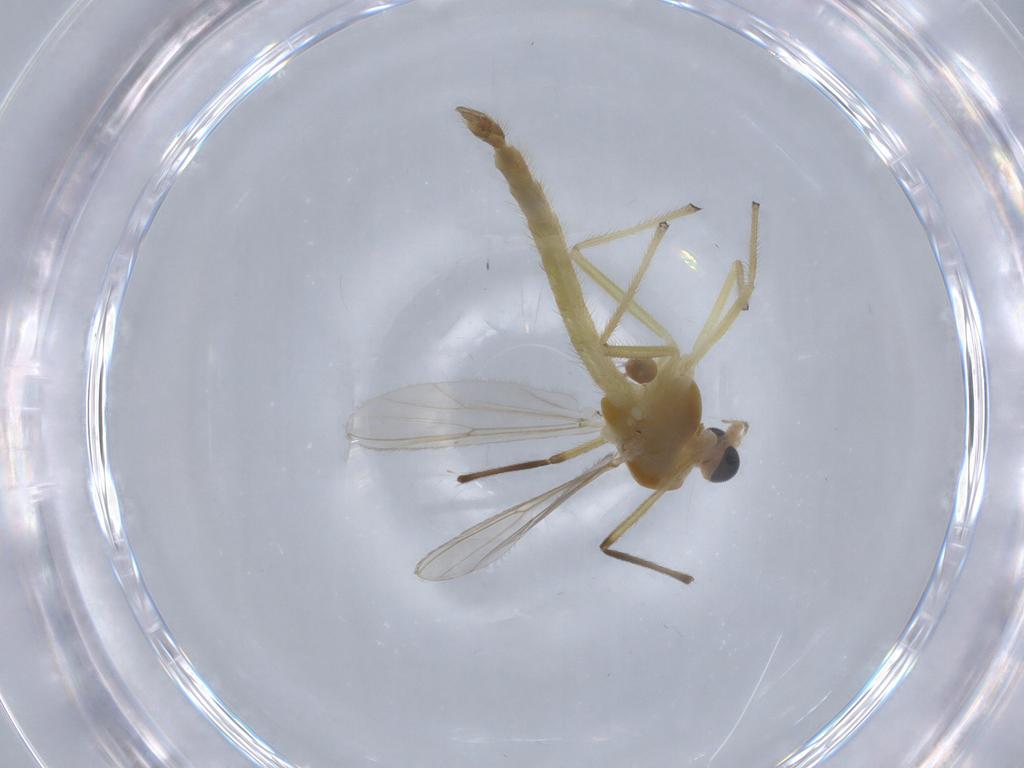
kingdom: Animalia
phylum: Arthropoda
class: Insecta
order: Diptera
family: Chironomidae
